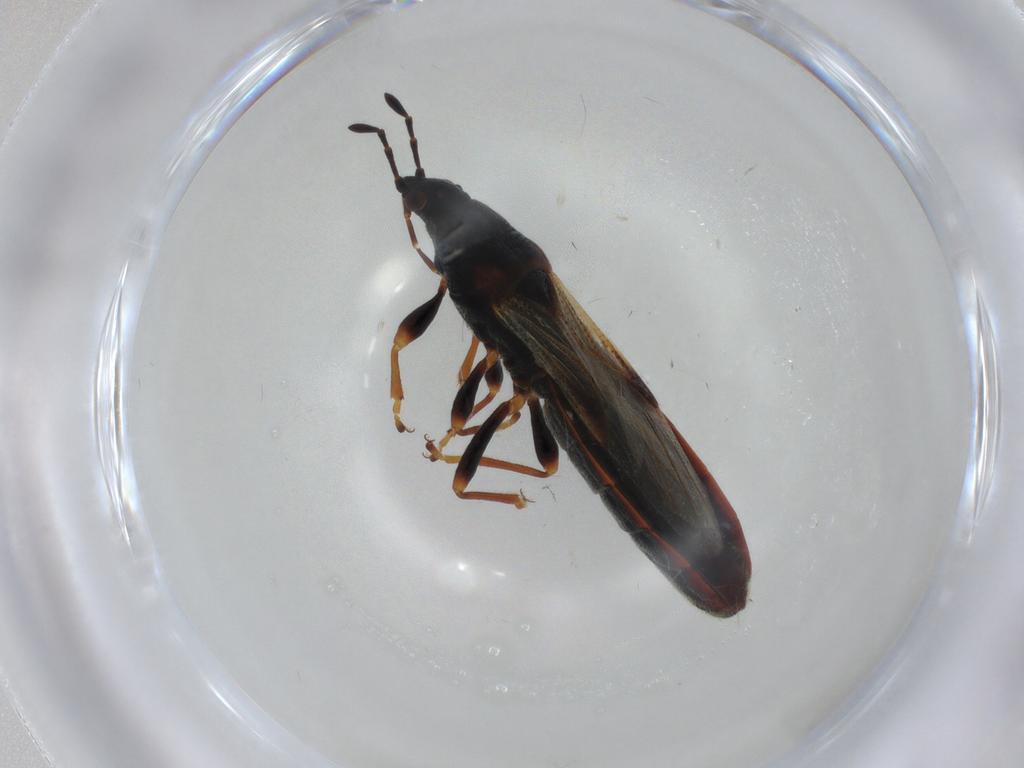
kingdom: Animalia
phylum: Arthropoda
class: Insecta
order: Hemiptera
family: Blissidae
